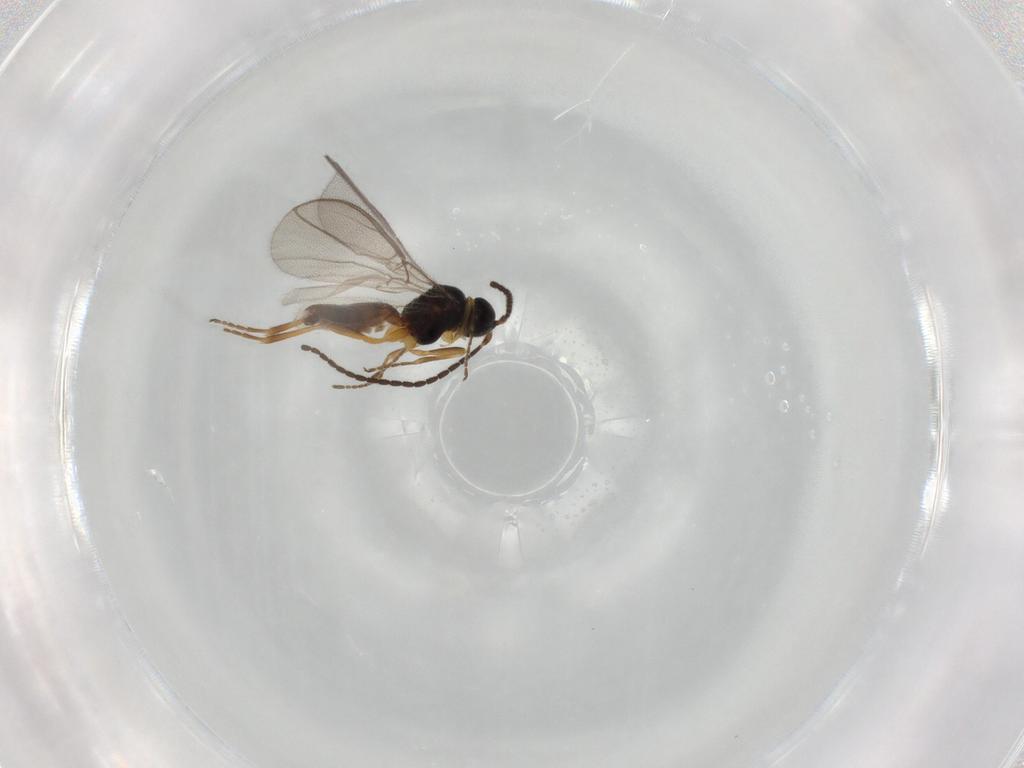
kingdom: Animalia
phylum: Arthropoda
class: Insecta
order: Hymenoptera
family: Braconidae
